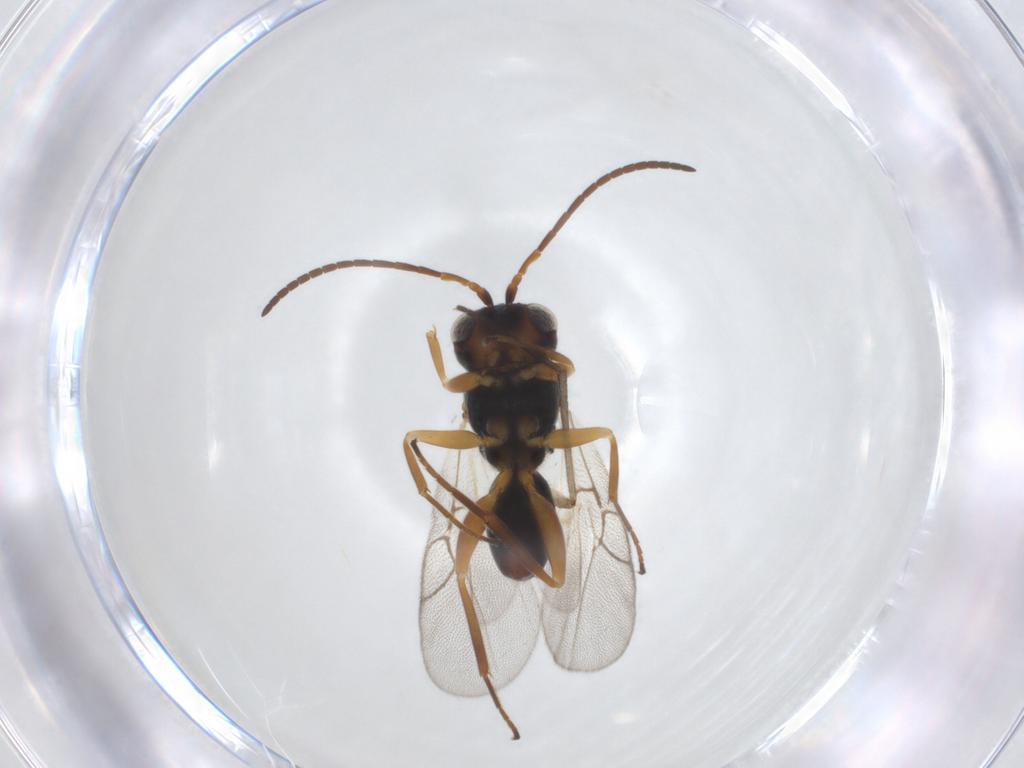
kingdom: Animalia
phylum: Arthropoda
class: Insecta
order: Hymenoptera
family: Cynipidae
